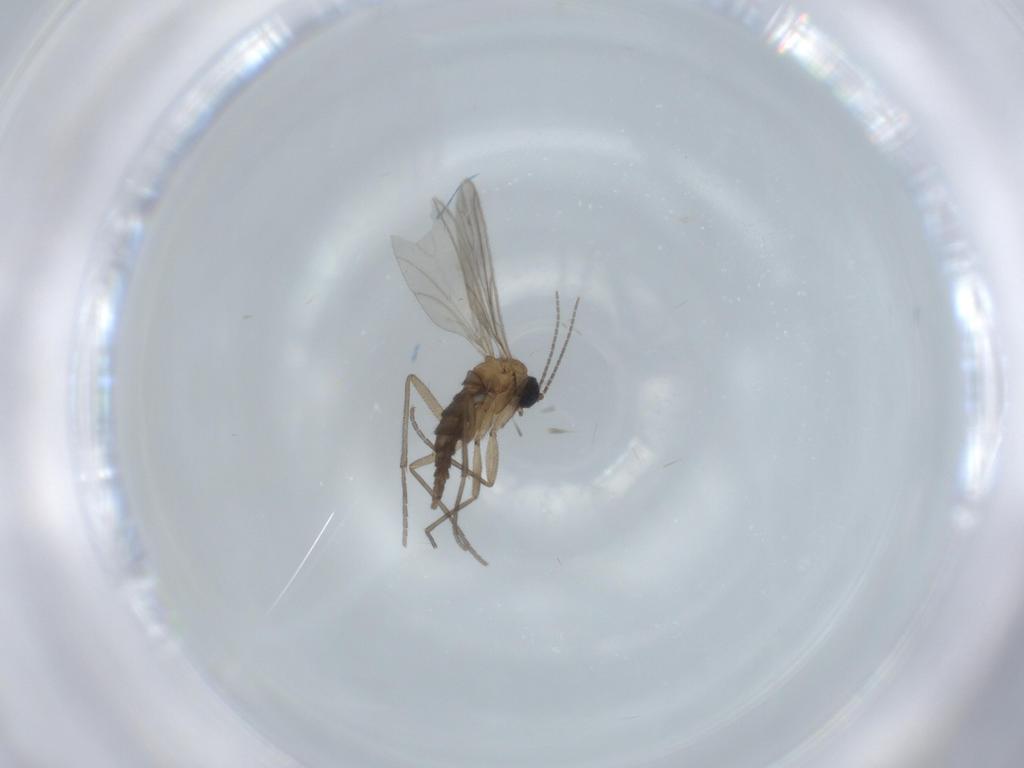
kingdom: Animalia
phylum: Arthropoda
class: Insecta
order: Diptera
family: Sciaridae
